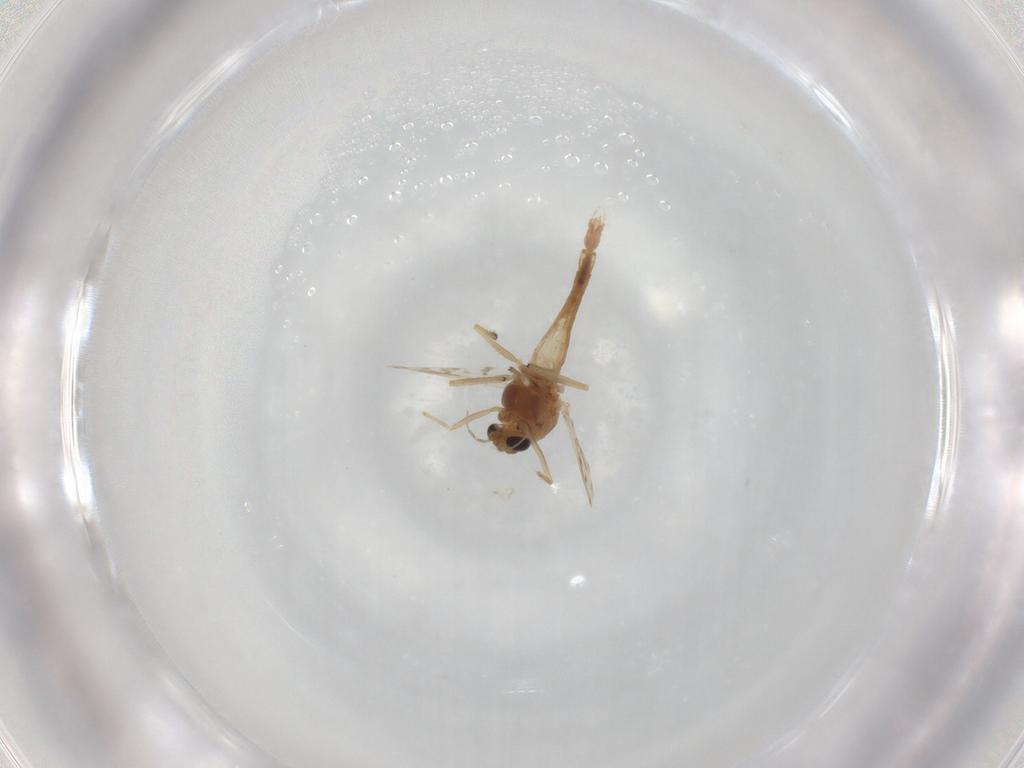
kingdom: Animalia
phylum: Arthropoda
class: Insecta
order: Diptera
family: Chironomidae
